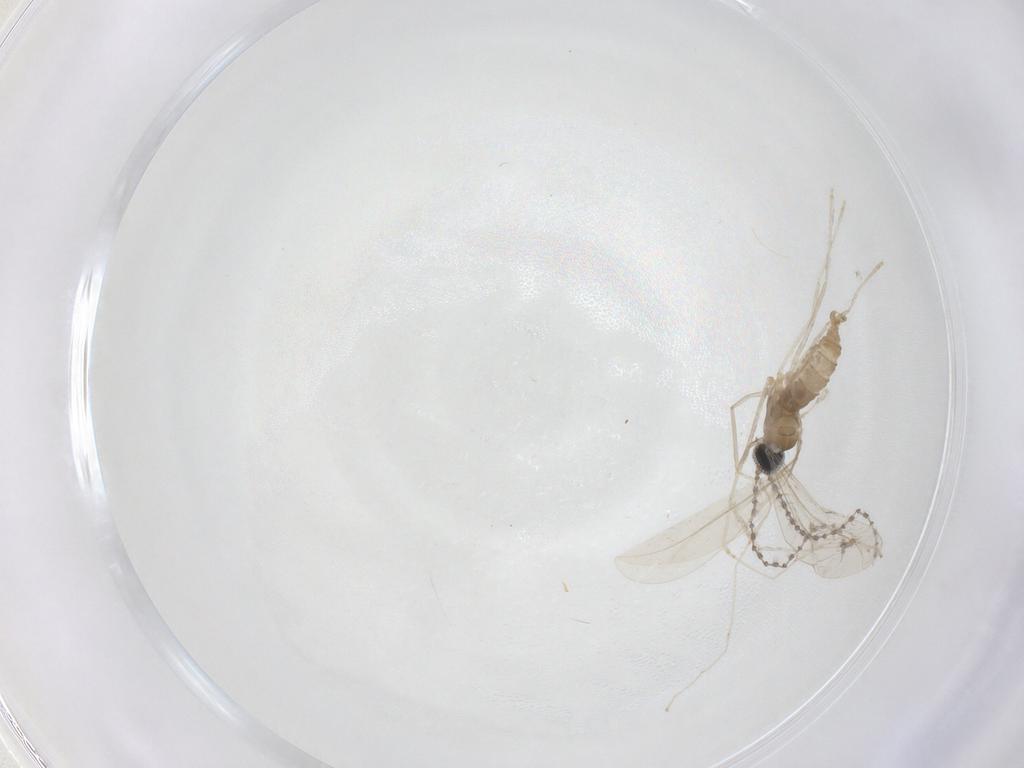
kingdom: Animalia
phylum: Arthropoda
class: Insecta
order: Diptera
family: Cecidomyiidae
